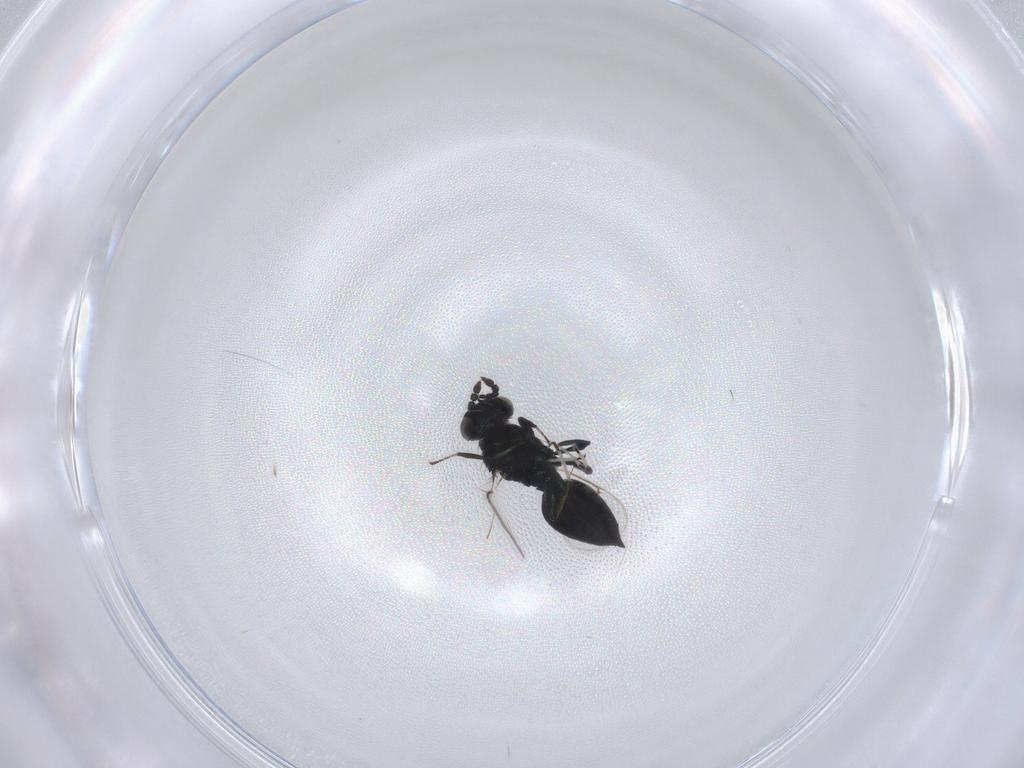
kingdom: Animalia
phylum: Arthropoda
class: Insecta
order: Hymenoptera
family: Eulophidae
